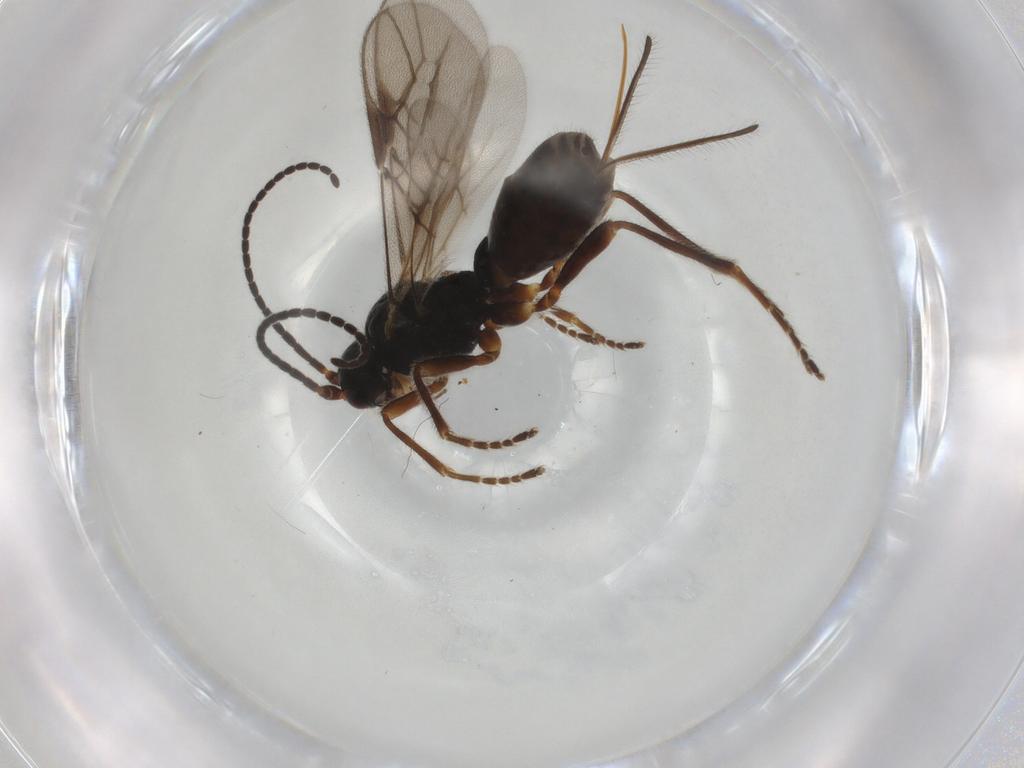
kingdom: Animalia
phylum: Arthropoda
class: Insecta
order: Hymenoptera
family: Braconidae
